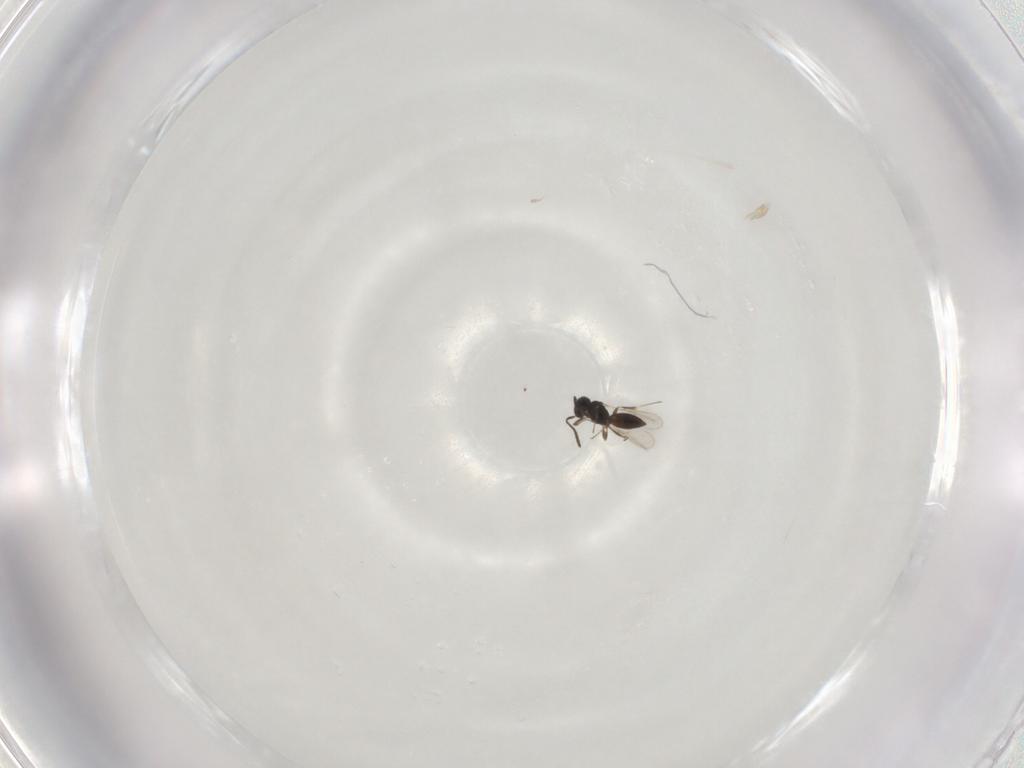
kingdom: Animalia
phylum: Arthropoda
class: Insecta
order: Hymenoptera
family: Scelionidae
